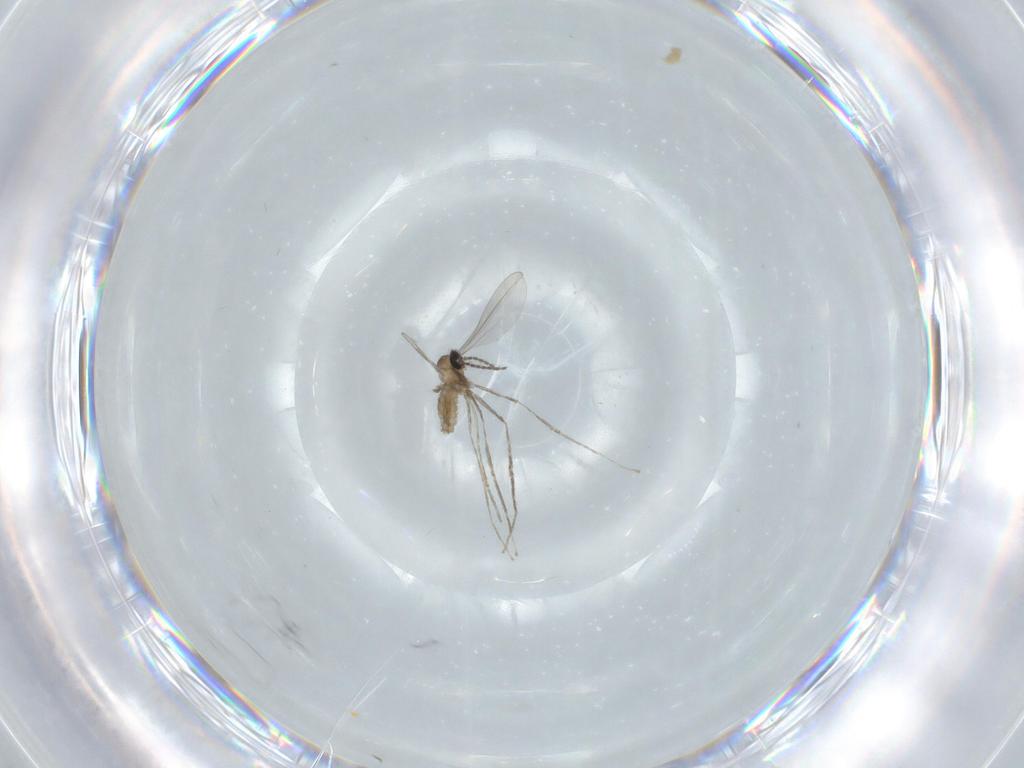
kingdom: Animalia
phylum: Arthropoda
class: Insecta
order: Diptera
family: Cecidomyiidae
